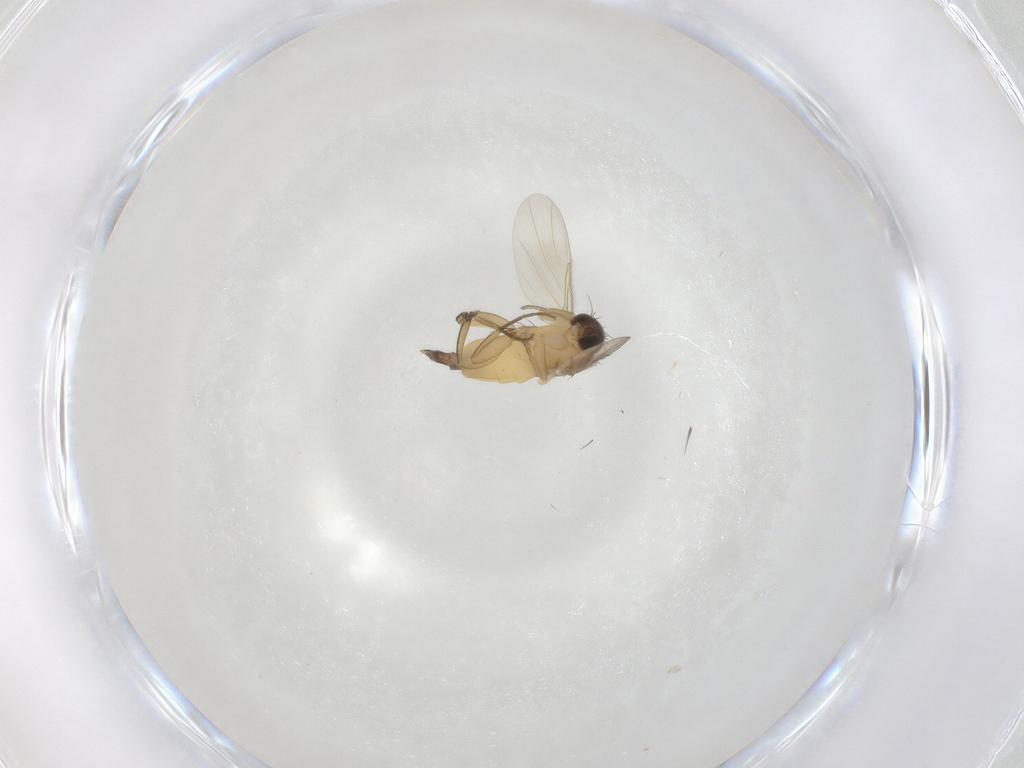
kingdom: Animalia
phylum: Arthropoda
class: Insecta
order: Diptera
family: Phoridae
